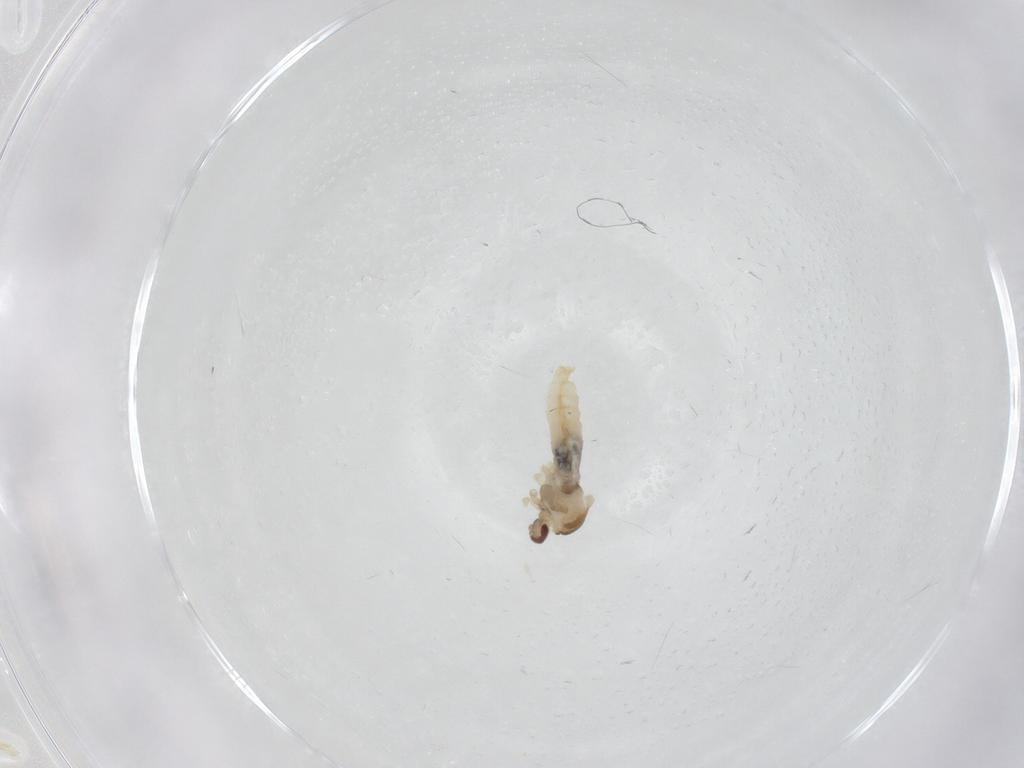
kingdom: Animalia
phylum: Arthropoda
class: Insecta
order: Diptera
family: Cecidomyiidae
